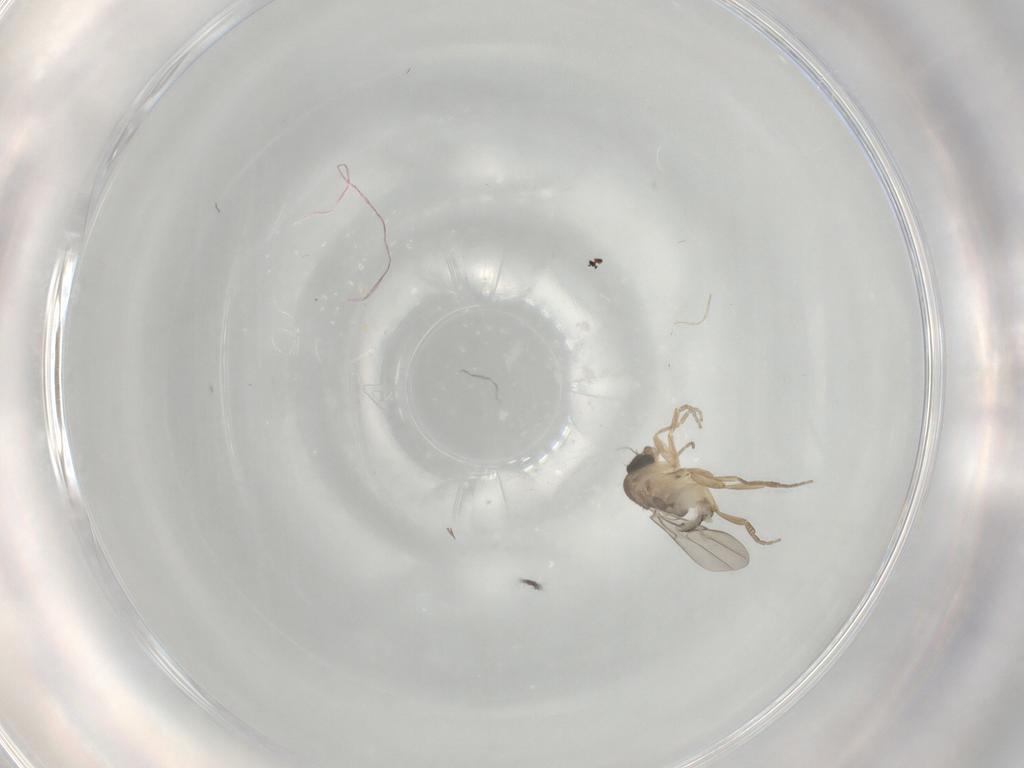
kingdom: Animalia
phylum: Arthropoda
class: Insecta
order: Diptera
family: Phoridae
